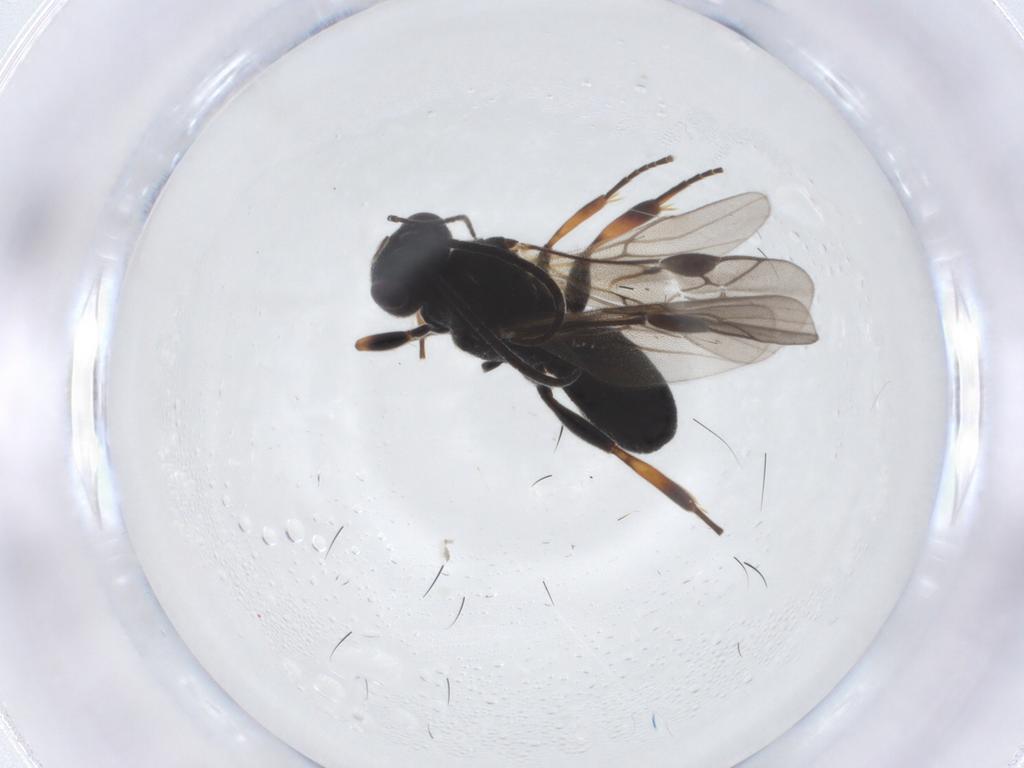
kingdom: Animalia
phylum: Arthropoda
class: Insecta
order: Hymenoptera
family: Braconidae
